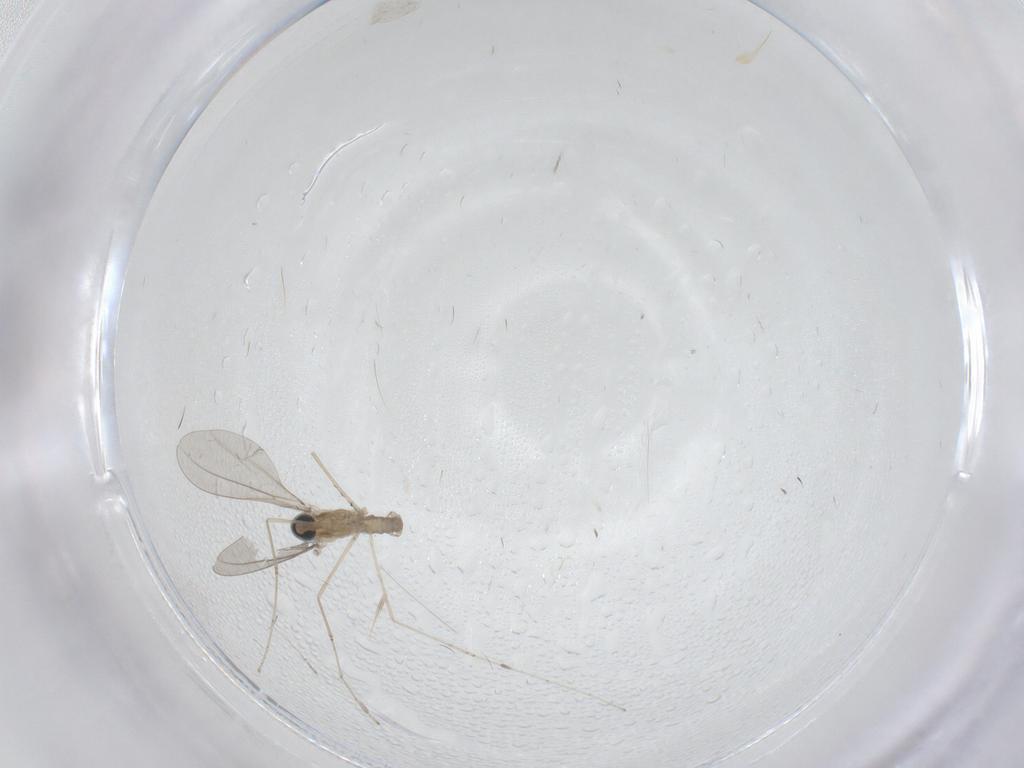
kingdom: Animalia
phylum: Arthropoda
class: Insecta
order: Diptera
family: Cecidomyiidae
